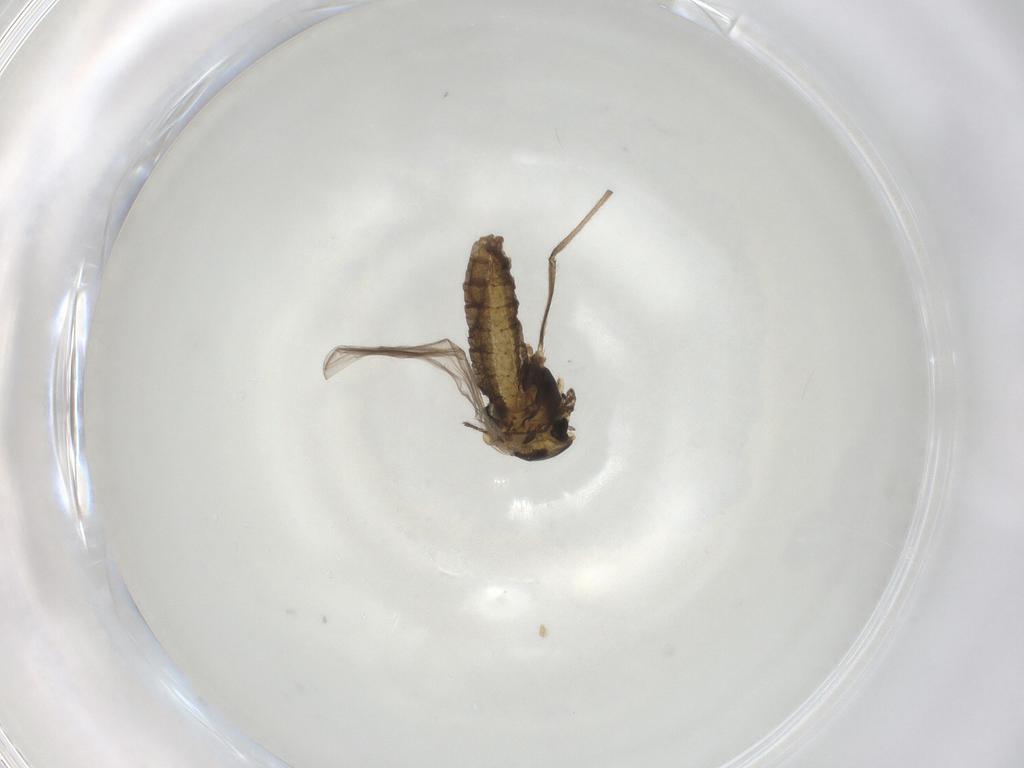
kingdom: Animalia
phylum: Arthropoda
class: Insecta
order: Diptera
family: Chironomidae
